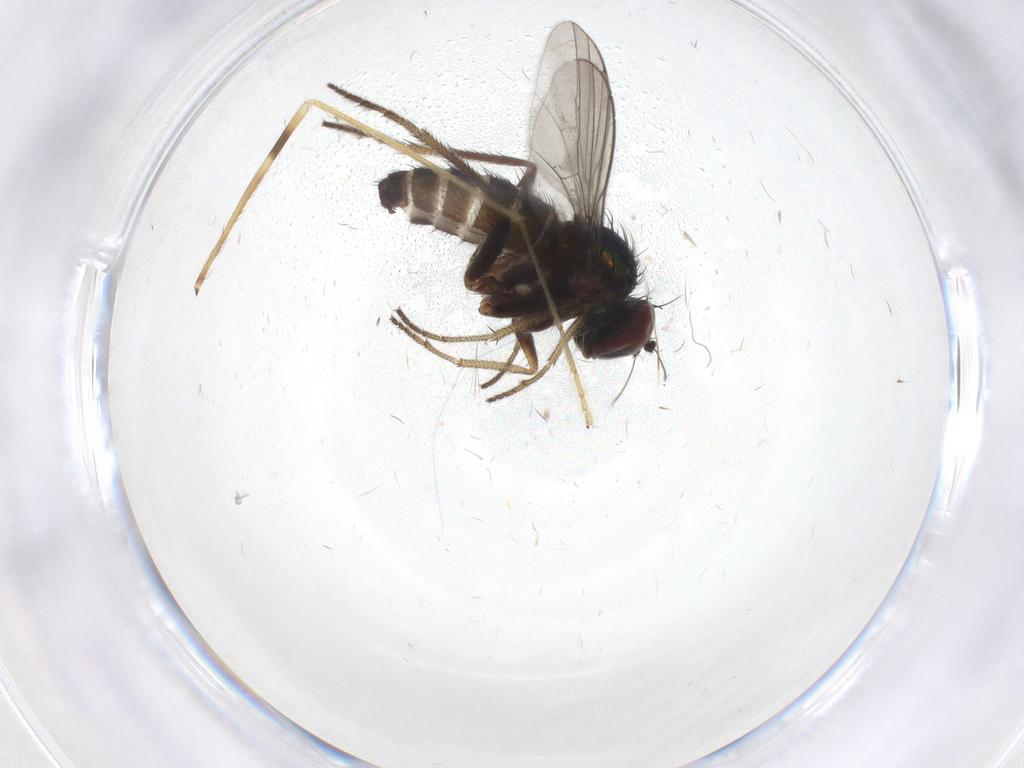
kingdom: Animalia
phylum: Arthropoda
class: Insecta
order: Diptera
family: Dolichopodidae
